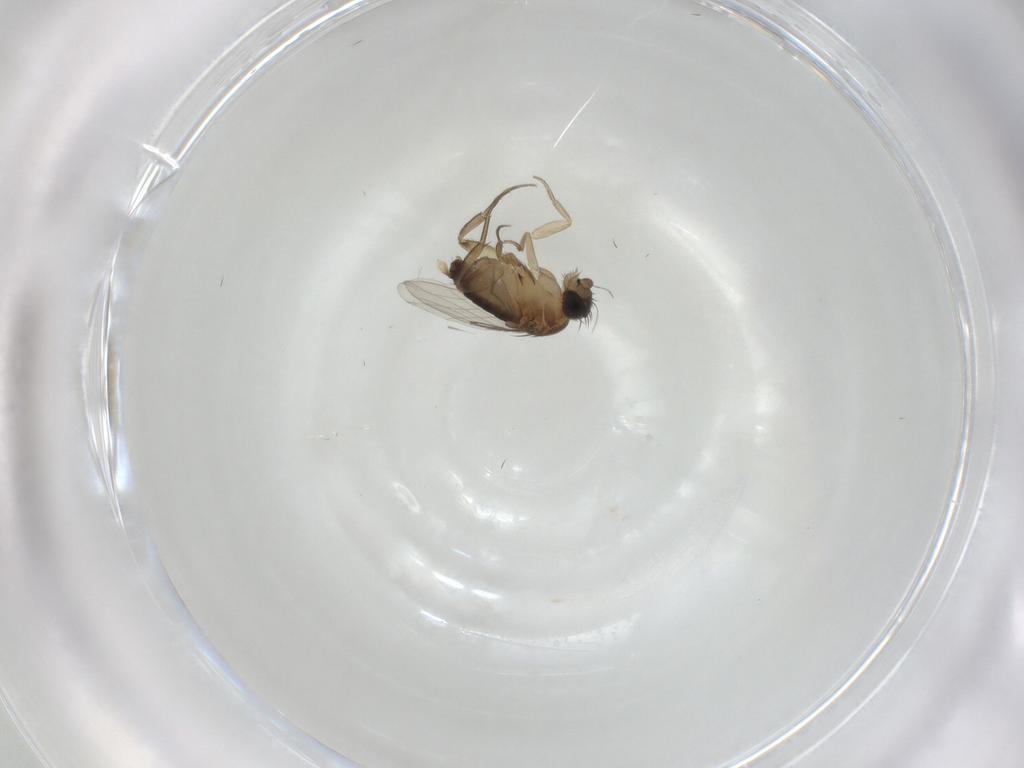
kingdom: Animalia
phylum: Arthropoda
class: Insecta
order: Diptera
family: Phoridae
